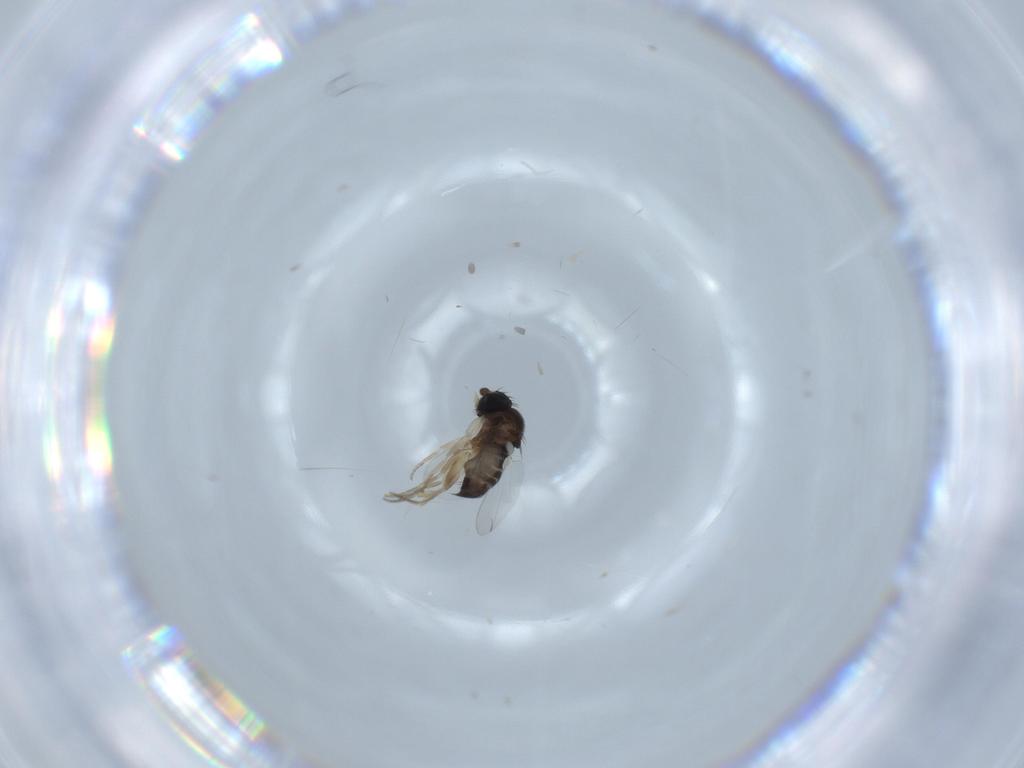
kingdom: Animalia
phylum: Arthropoda
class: Insecta
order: Diptera
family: Phoridae
